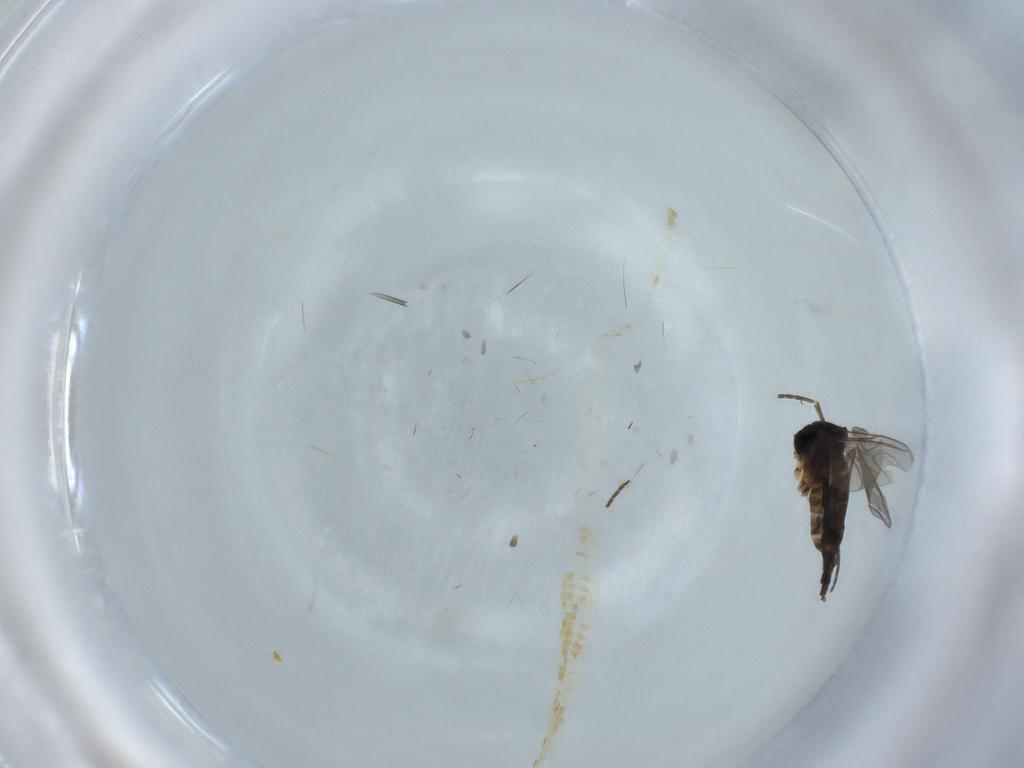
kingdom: Animalia
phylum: Arthropoda
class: Insecta
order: Diptera
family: Sciaridae
